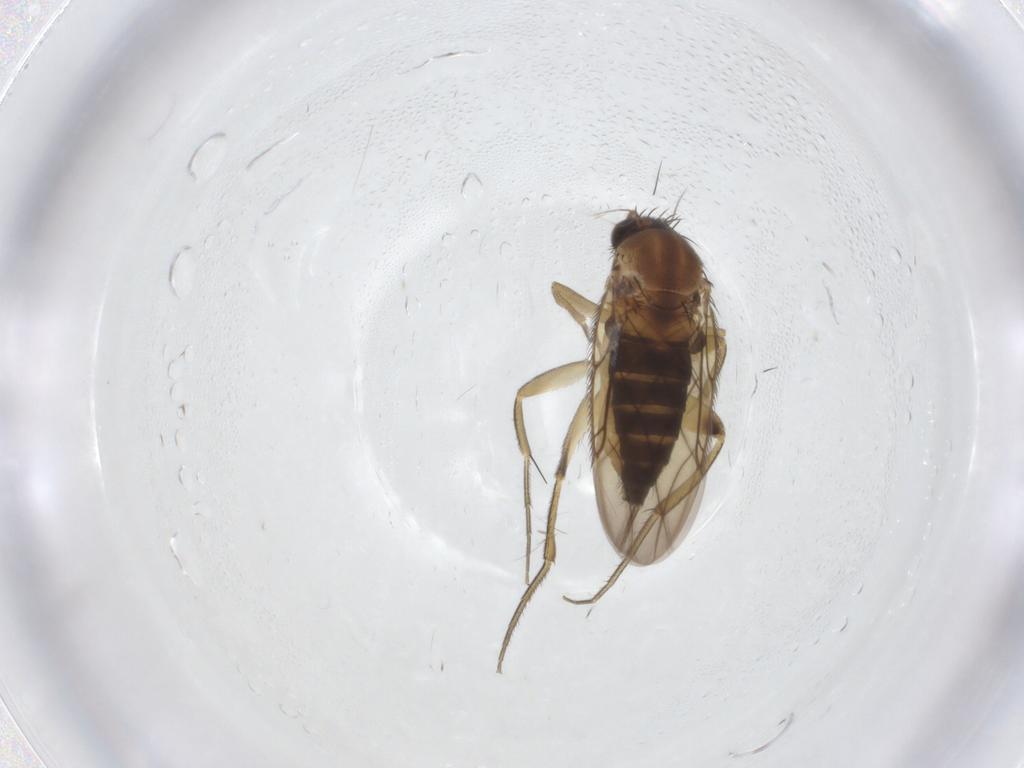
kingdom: Animalia
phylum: Arthropoda
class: Insecta
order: Diptera
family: Phoridae
